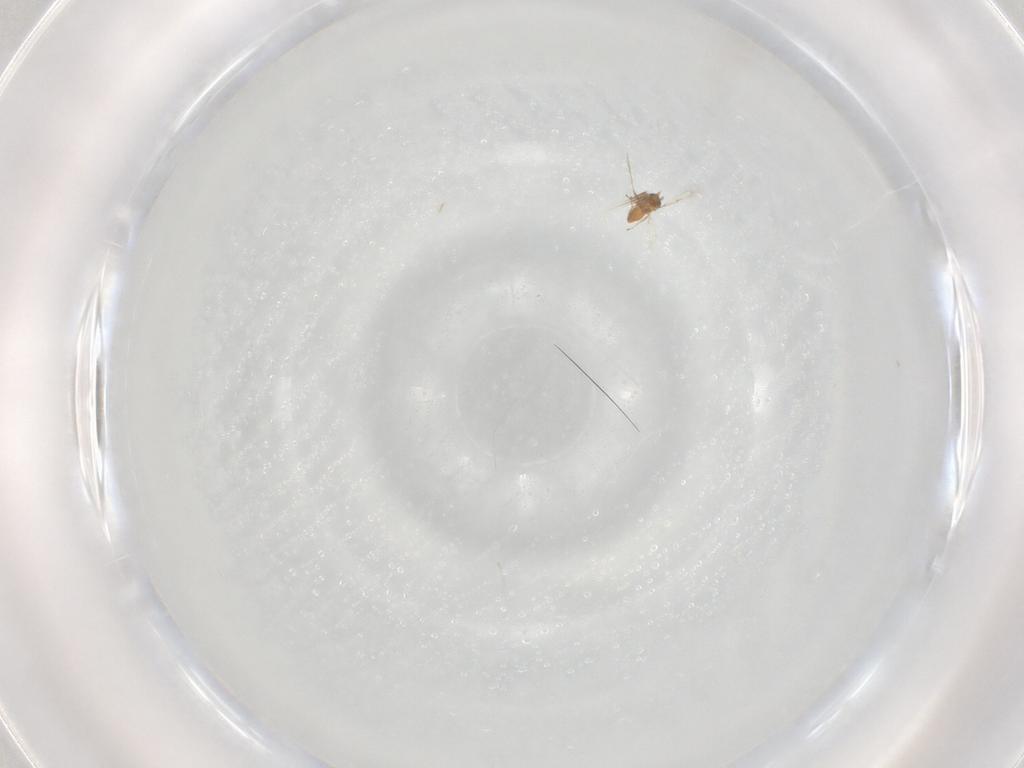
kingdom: Animalia
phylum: Arthropoda
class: Insecta
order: Hymenoptera
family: Trichogrammatidae
